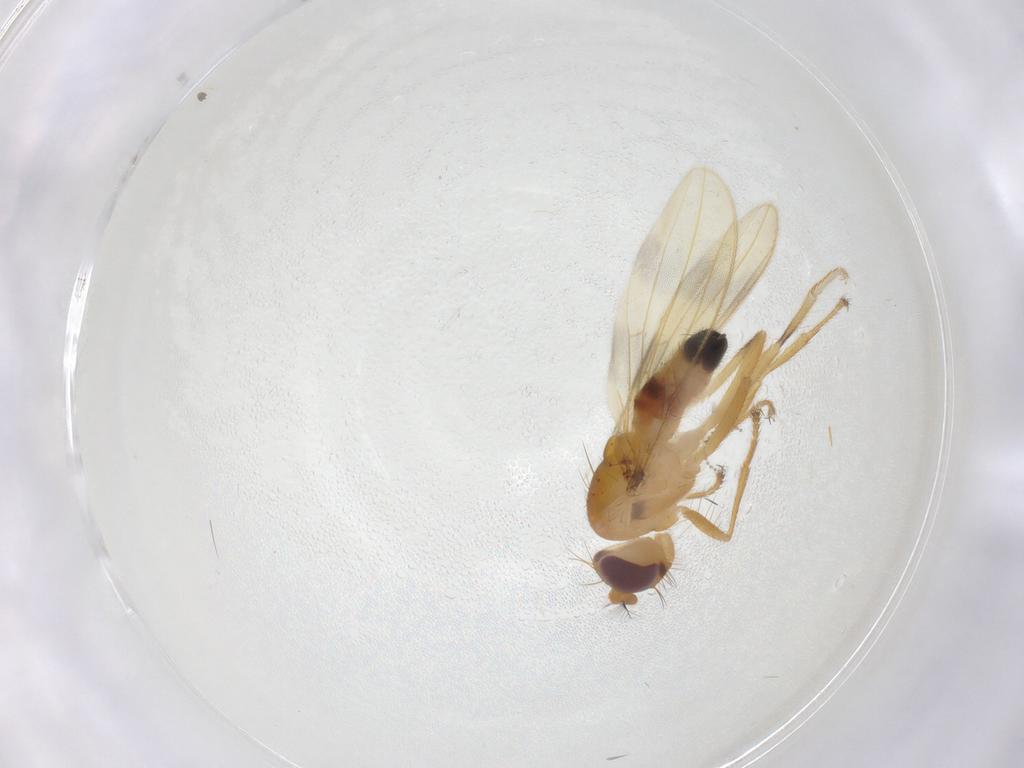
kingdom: Animalia
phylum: Arthropoda
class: Insecta
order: Diptera
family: Periscelididae
